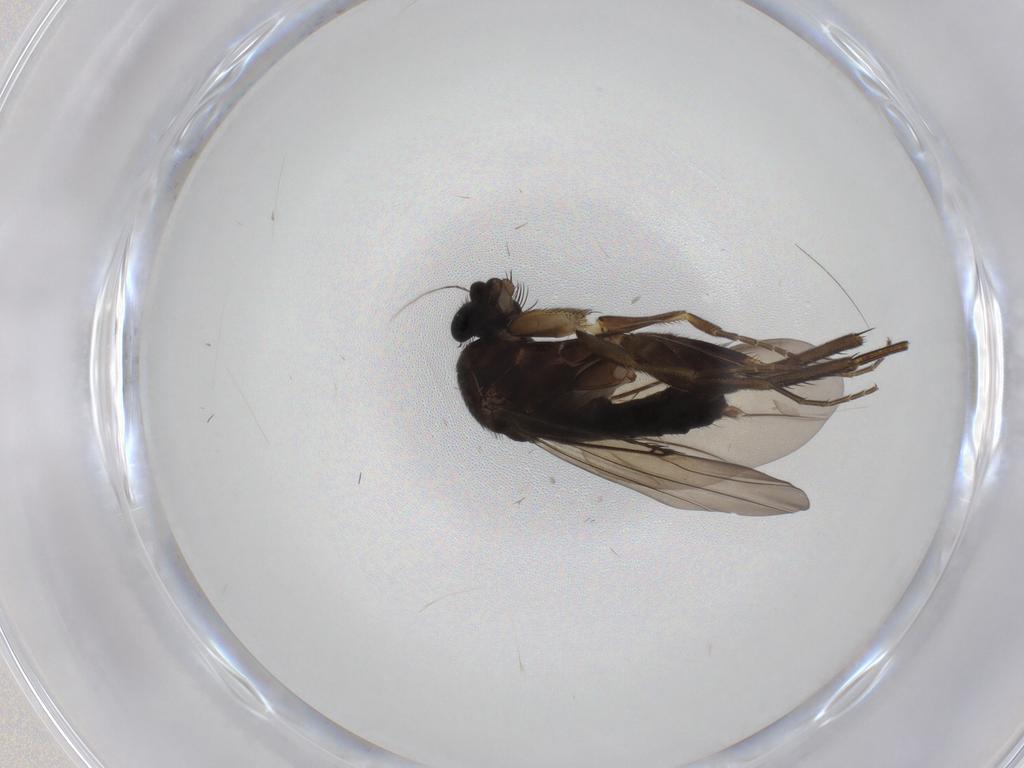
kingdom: Animalia
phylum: Arthropoda
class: Insecta
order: Diptera
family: Phoridae
